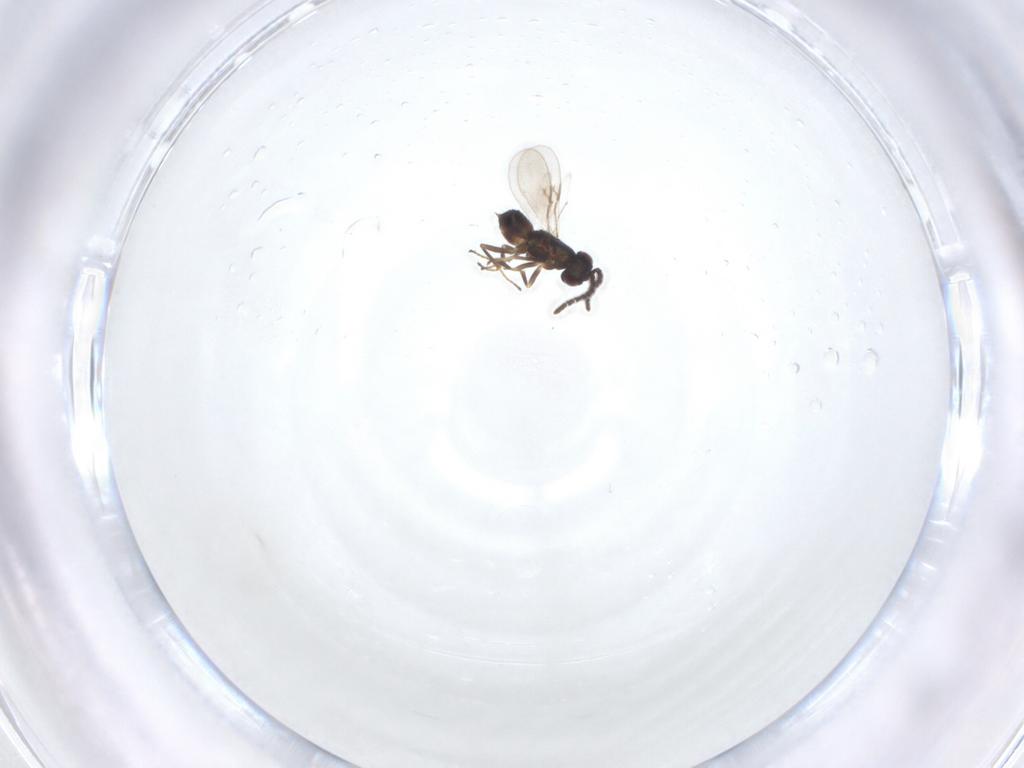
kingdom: Animalia
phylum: Arthropoda
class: Insecta
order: Hymenoptera
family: Encyrtidae
